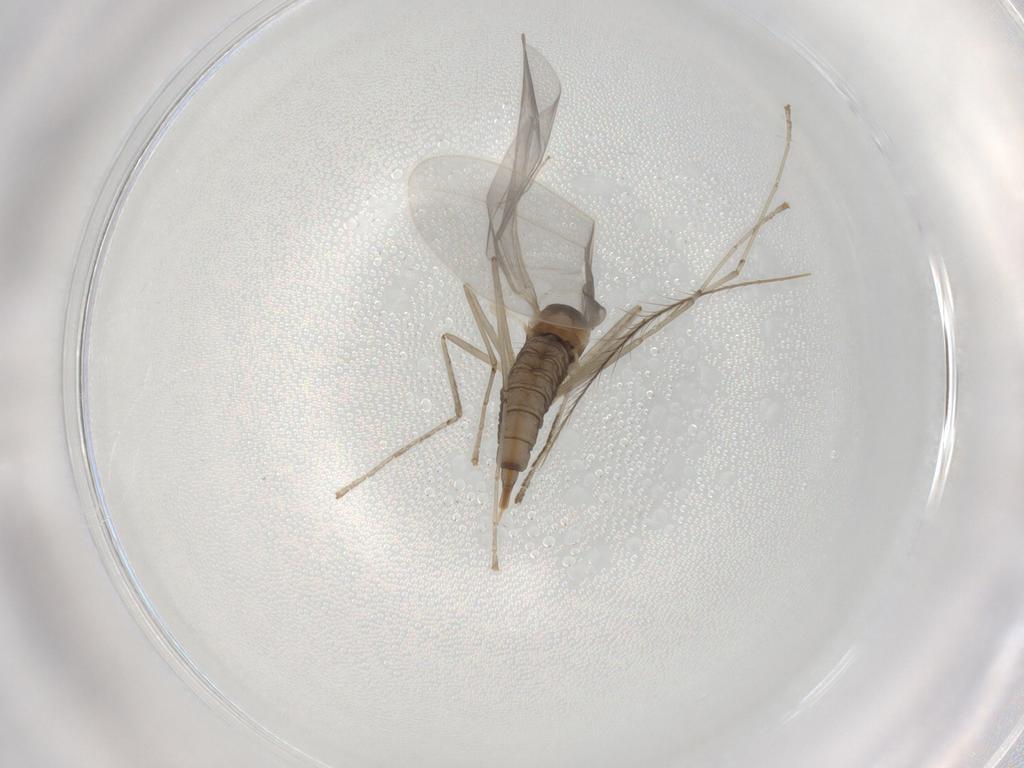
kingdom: Animalia
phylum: Arthropoda
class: Insecta
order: Diptera
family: Cecidomyiidae
